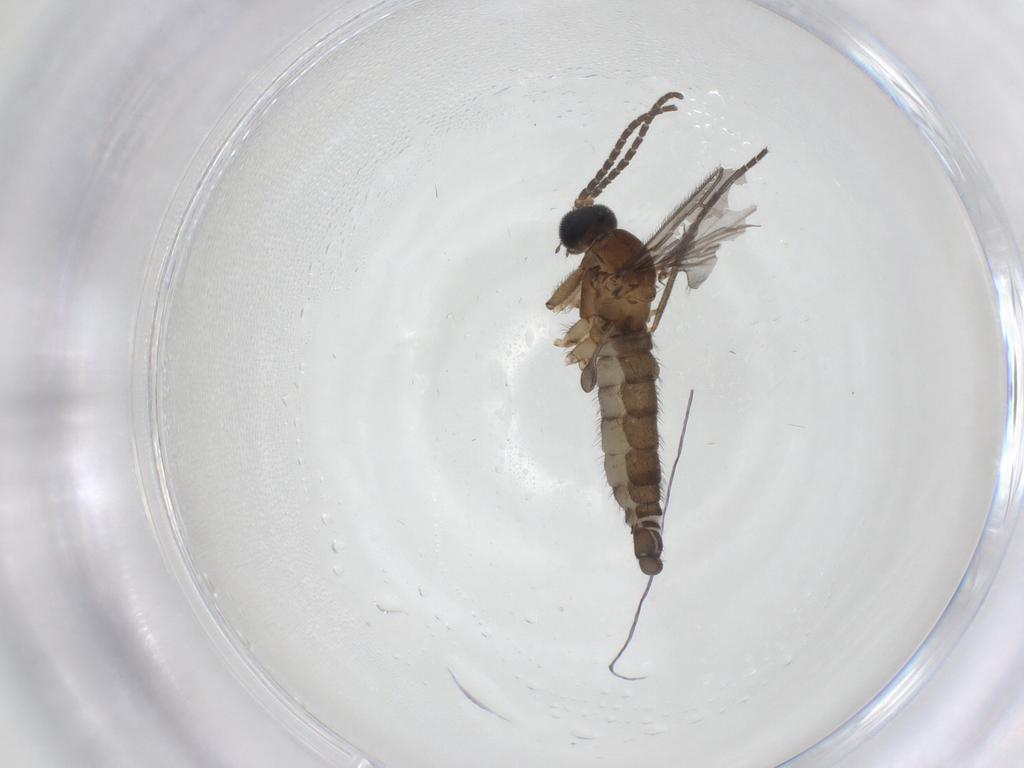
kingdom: Animalia
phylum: Arthropoda
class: Insecta
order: Diptera
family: Sciaridae
